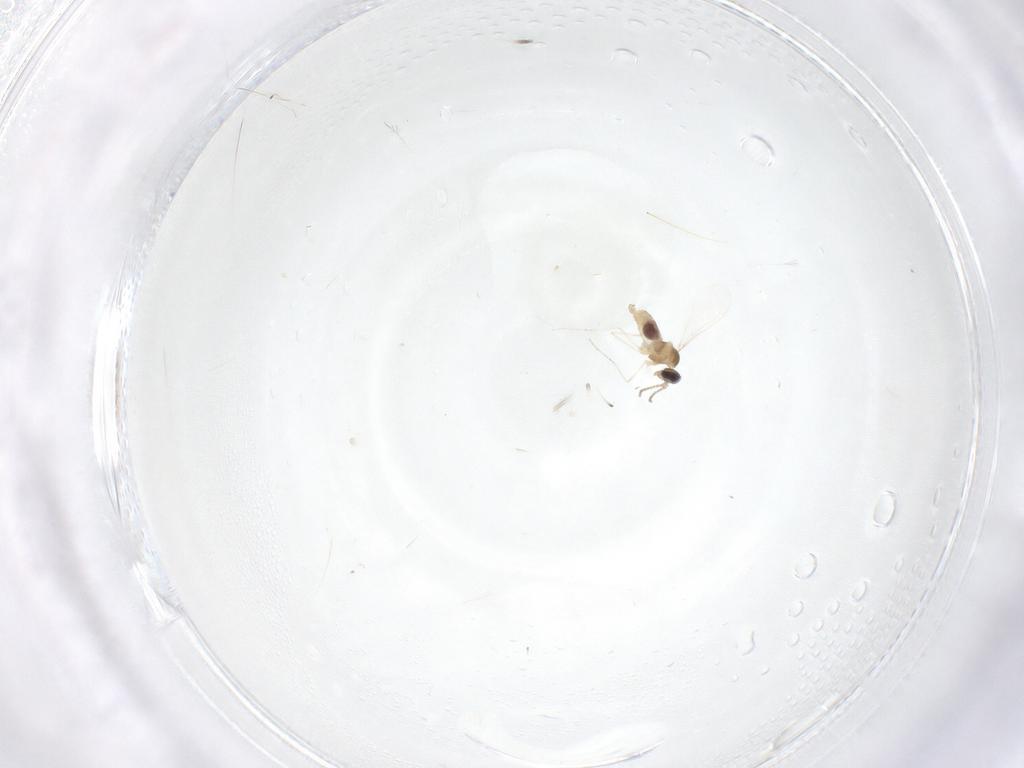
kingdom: Animalia
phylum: Arthropoda
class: Insecta
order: Diptera
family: Cecidomyiidae
